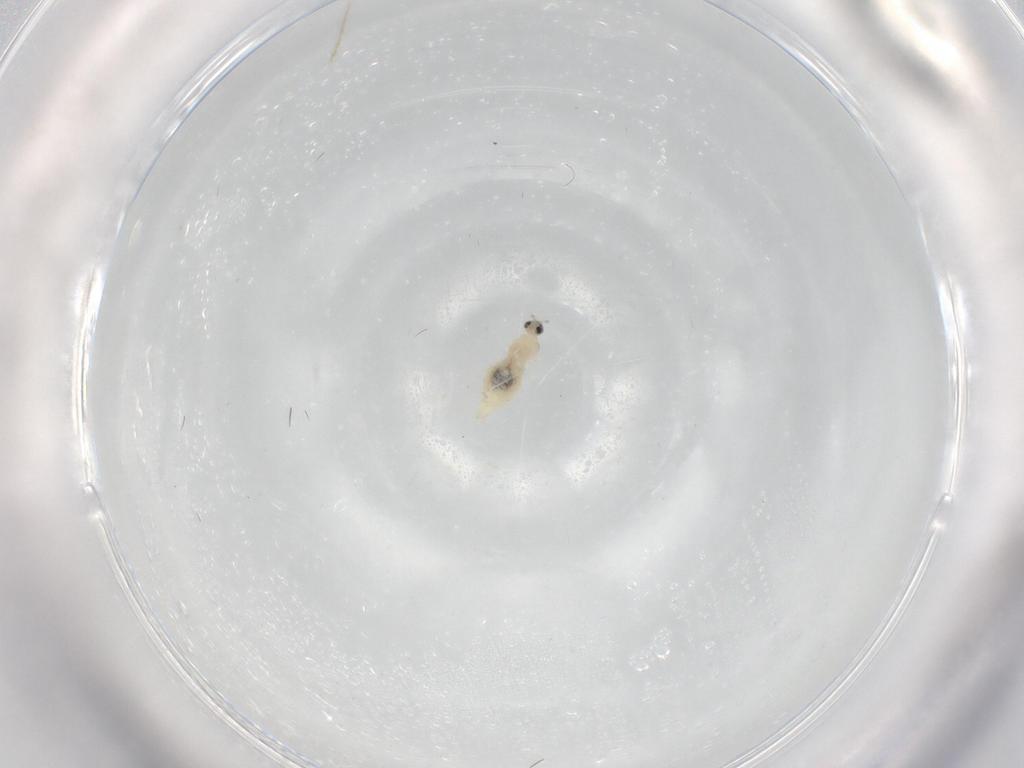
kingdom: Animalia
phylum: Arthropoda
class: Insecta
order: Diptera
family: Cecidomyiidae
